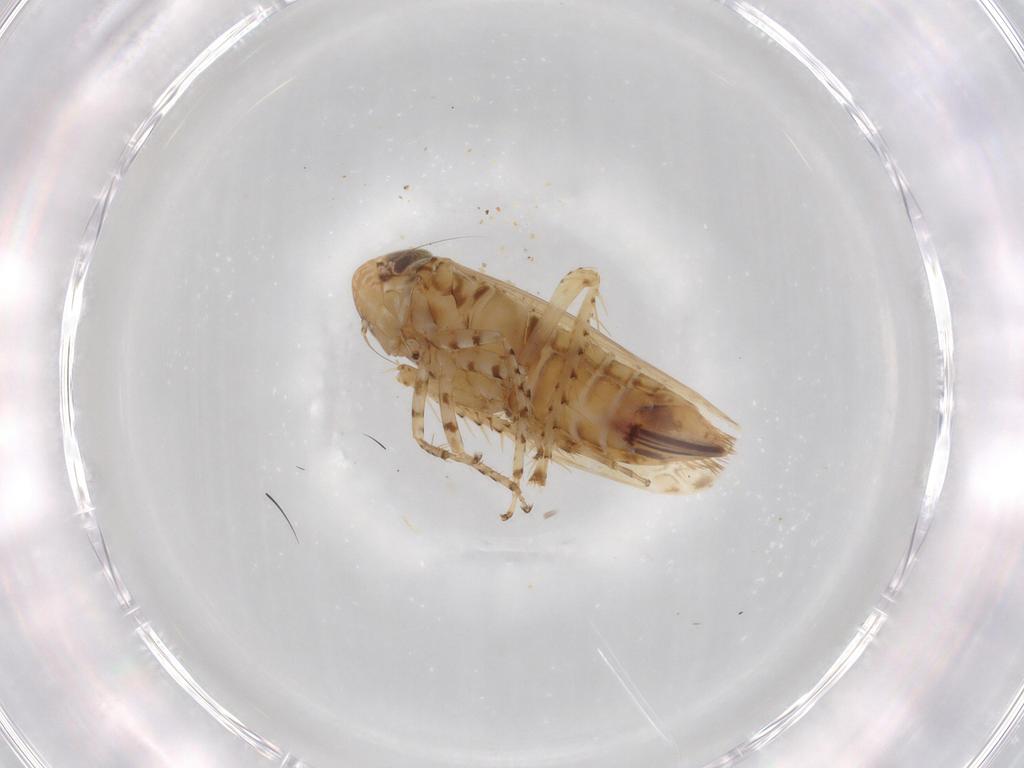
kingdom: Animalia
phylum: Arthropoda
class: Insecta
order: Hemiptera
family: Cicadellidae
